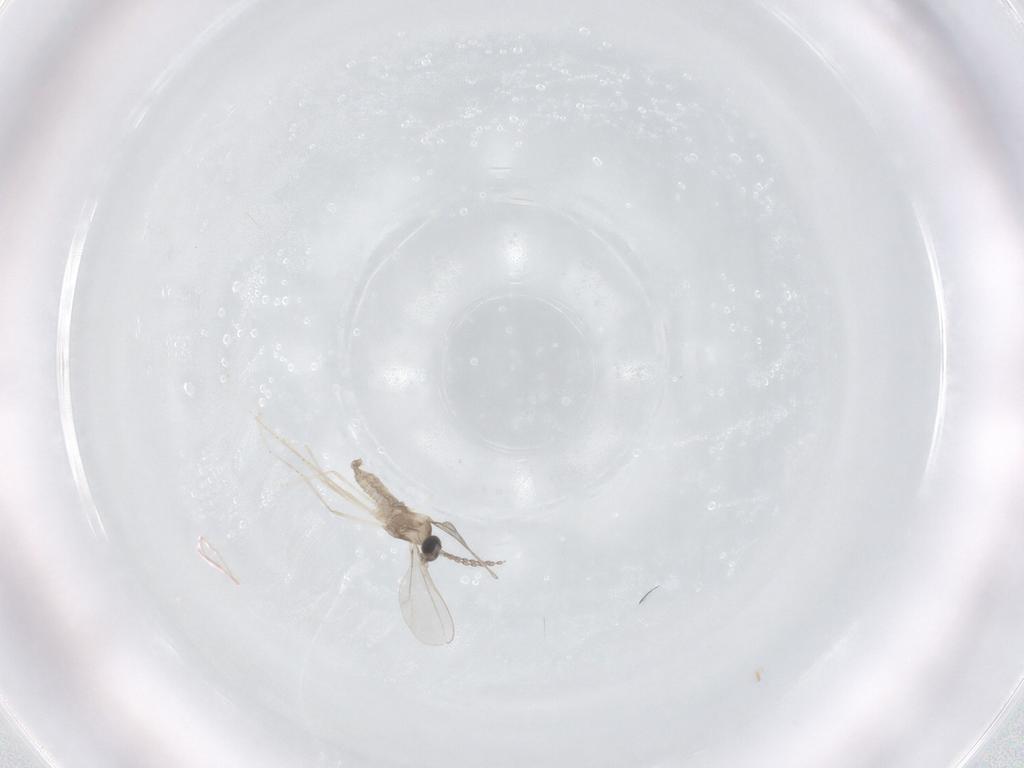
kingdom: Animalia
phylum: Arthropoda
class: Insecta
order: Diptera
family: Cecidomyiidae
